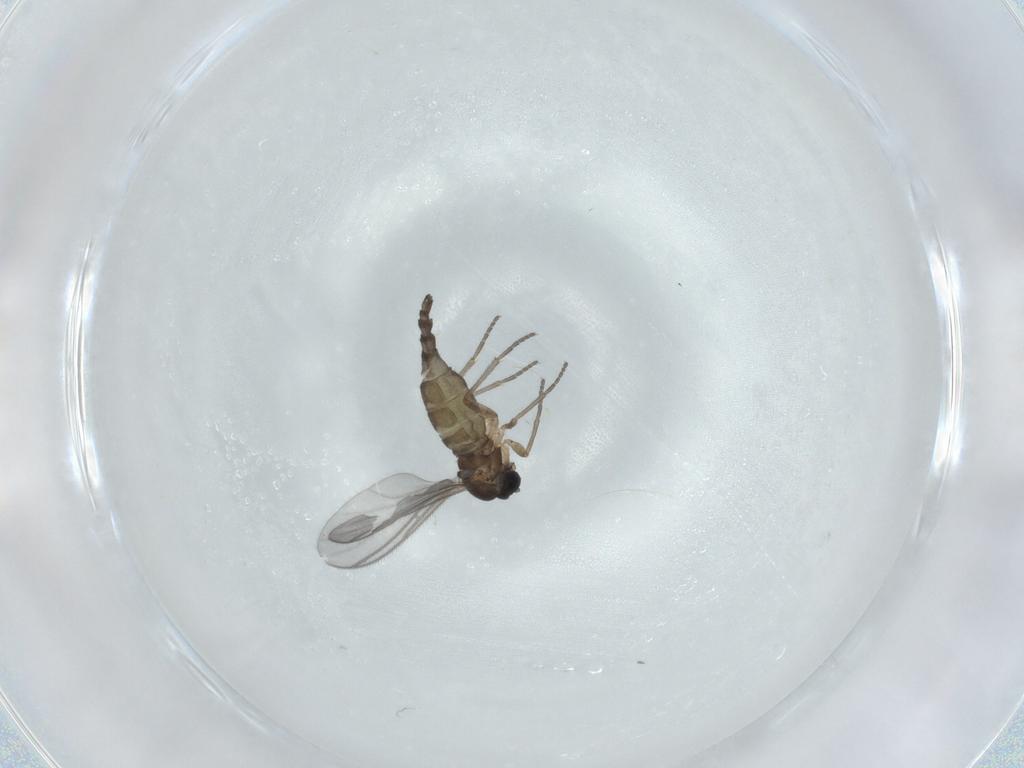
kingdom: Animalia
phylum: Arthropoda
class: Insecta
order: Diptera
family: Sciaridae
